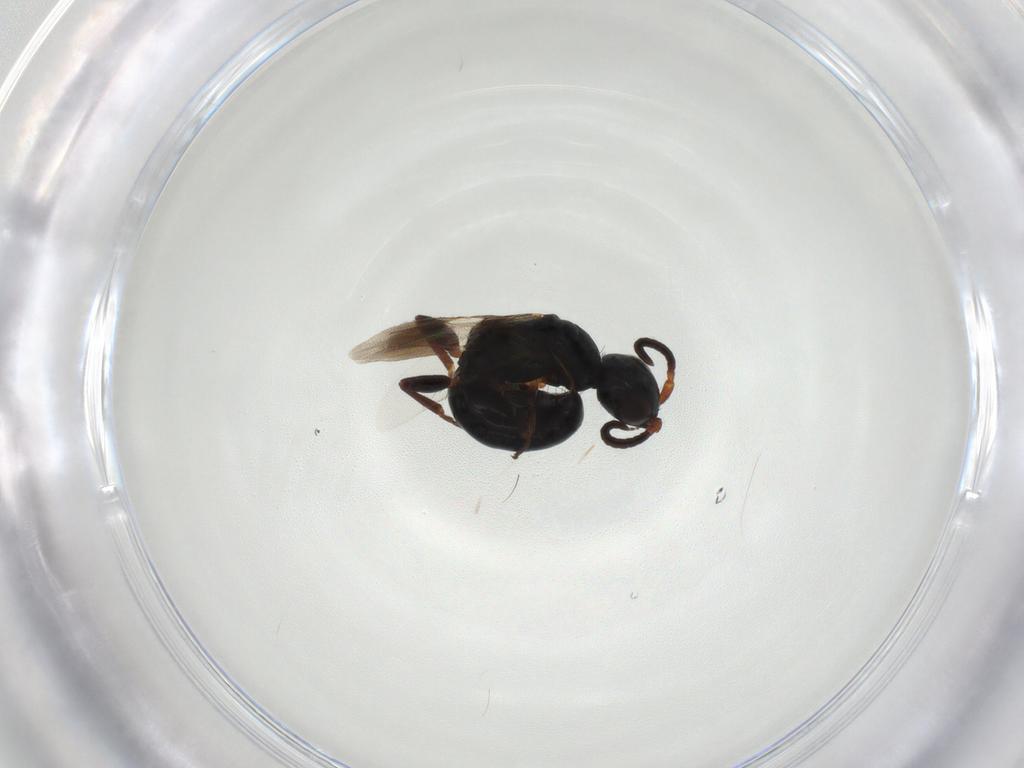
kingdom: Animalia
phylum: Arthropoda
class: Insecta
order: Hymenoptera
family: Bethylidae
